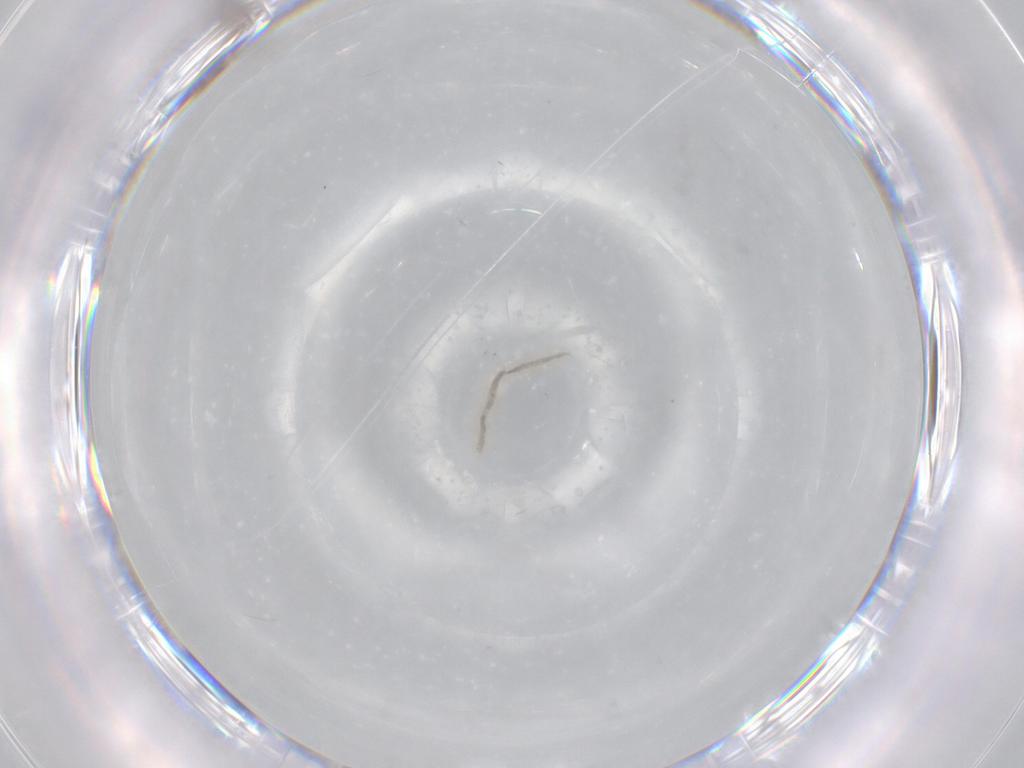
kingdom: Animalia
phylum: Arthropoda
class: Insecta
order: Diptera
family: Cecidomyiidae
